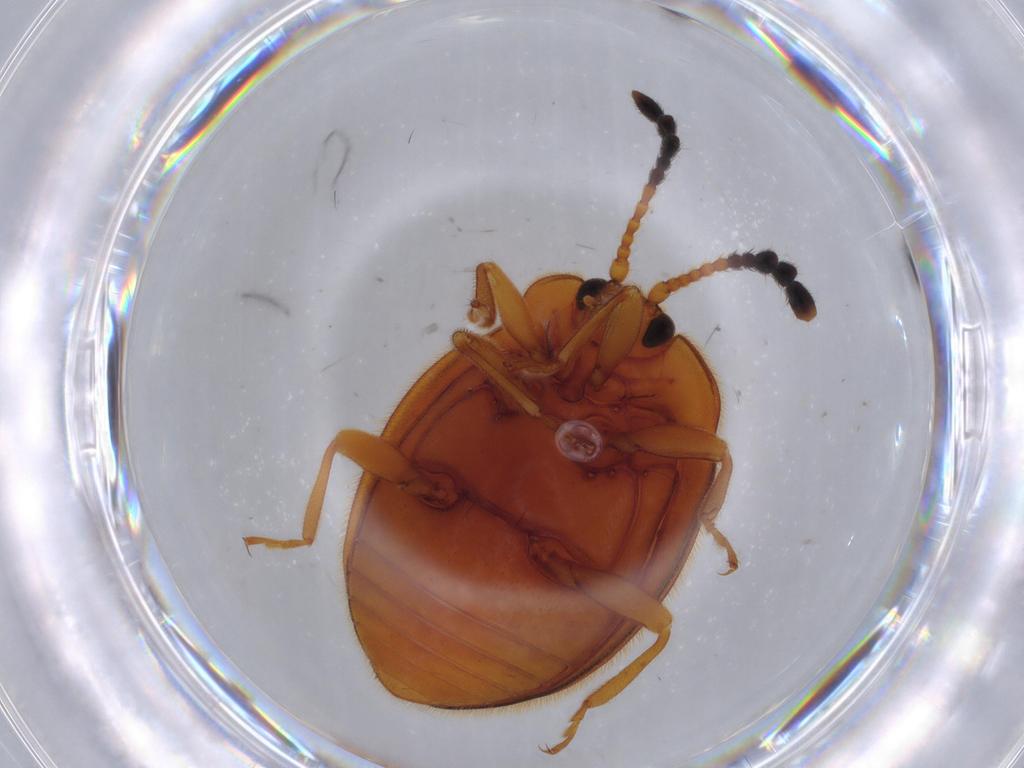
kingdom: Animalia
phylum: Arthropoda
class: Insecta
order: Coleoptera
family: Endomychidae
